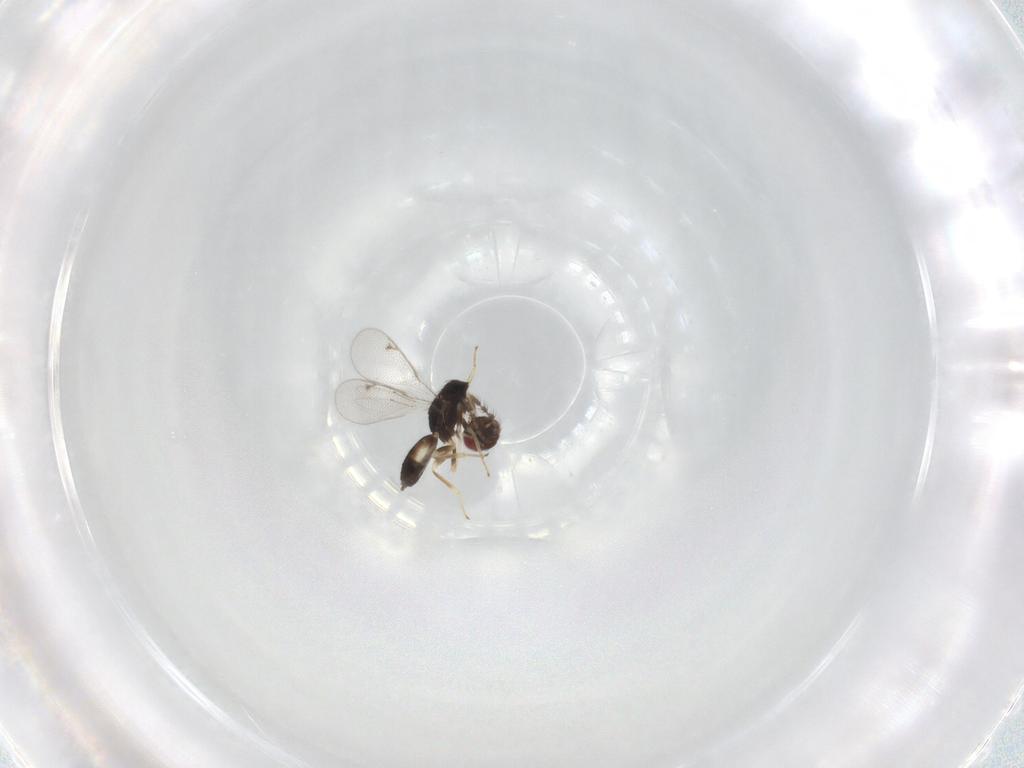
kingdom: Animalia
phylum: Arthropoda
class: Insecta
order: Hymenoptera
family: Eulophidae
